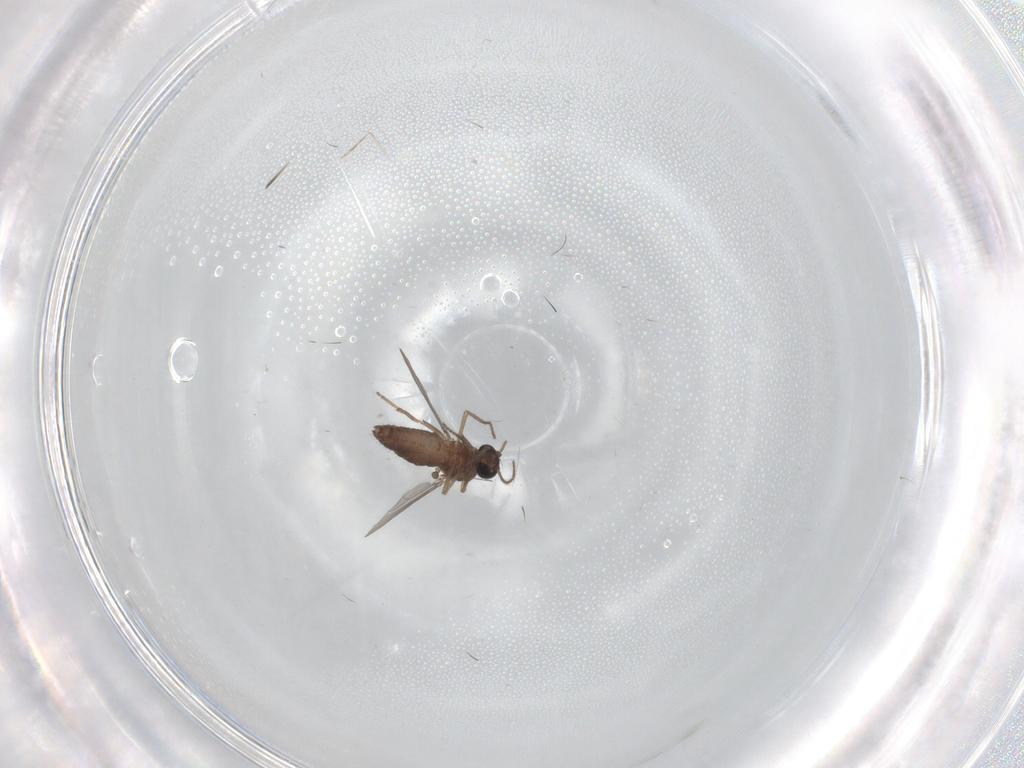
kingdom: Animalia
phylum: Arthropoda
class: Insecta
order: Diptera
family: Ceratopogonidae
